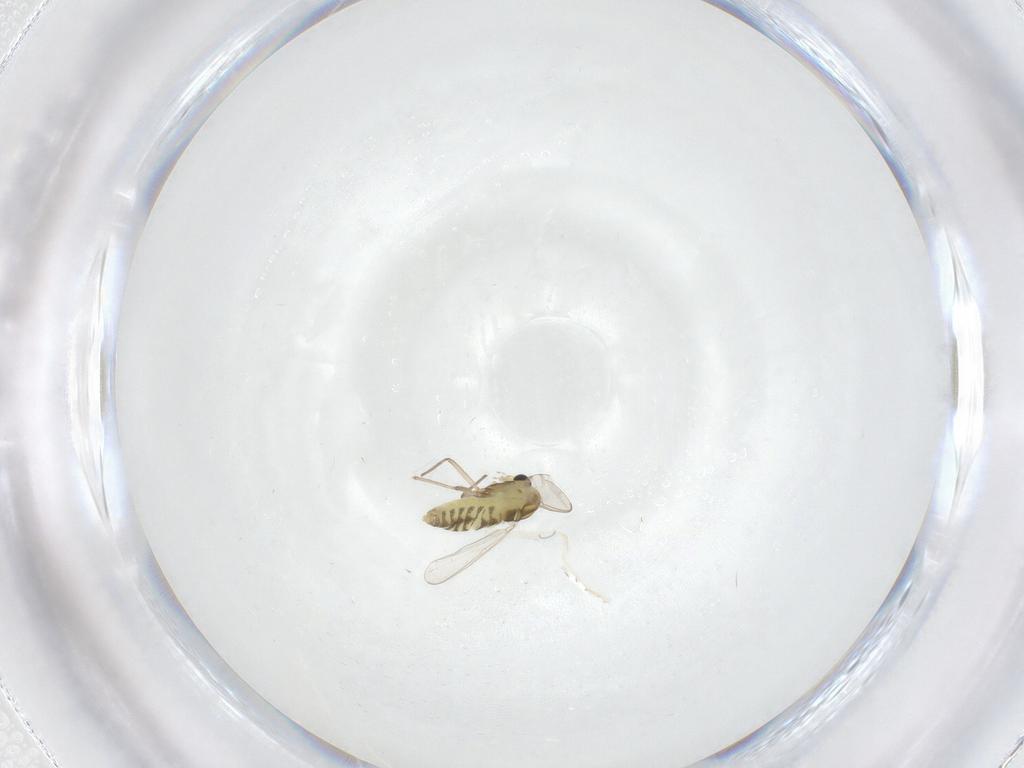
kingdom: Animalia
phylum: Arthropoda
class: Insecta
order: Diptera
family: Chironomidae
